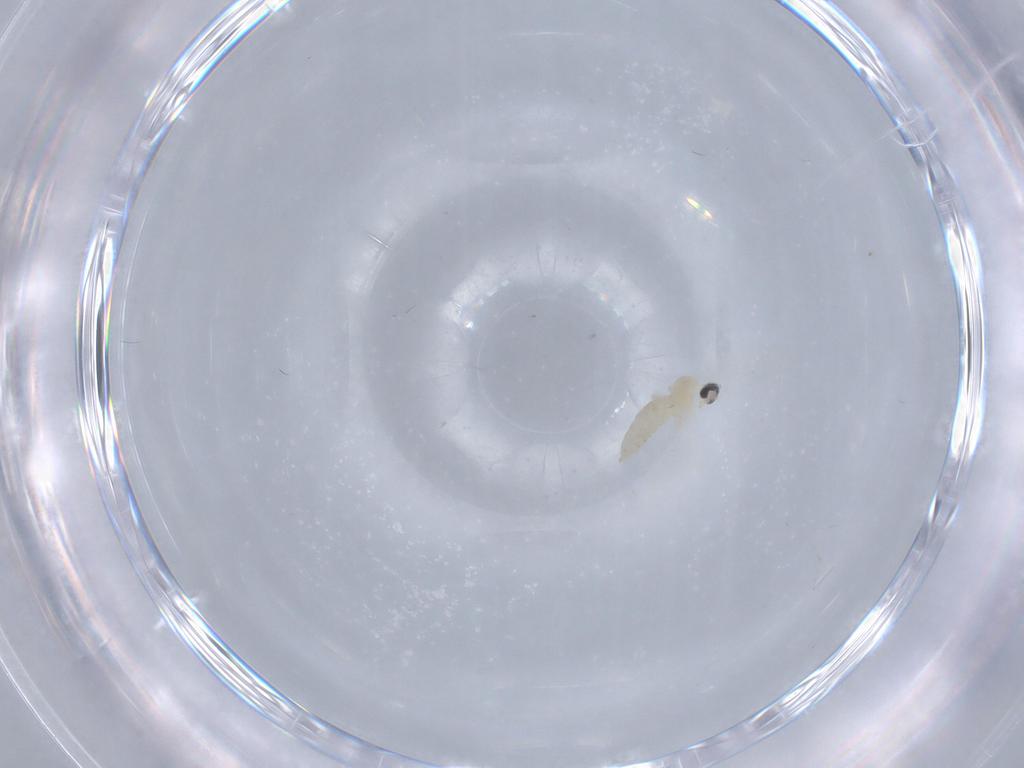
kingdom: Animalia
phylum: Arthropoda
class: Insecta
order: Diptera
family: Cecidomyiidae
